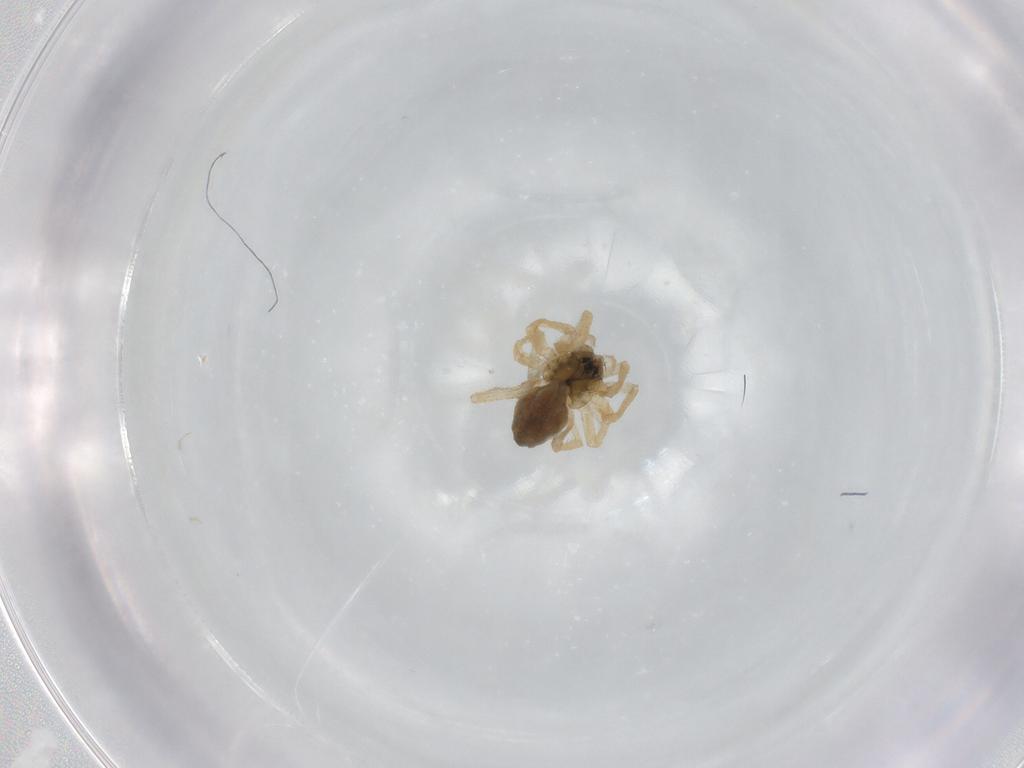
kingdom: Animalia
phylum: Arthropoda
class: Arachnida
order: Araneae
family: Linyphiidae
